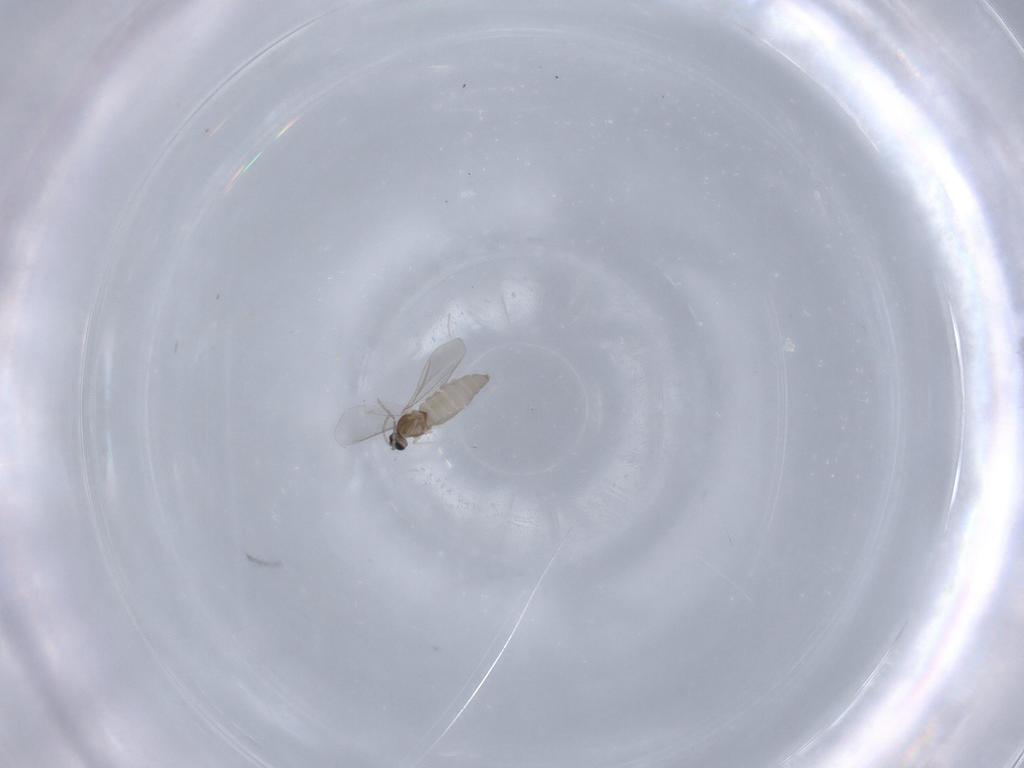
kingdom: Animalia
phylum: Arthropoda
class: Insecta
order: Diptera
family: Cecidomyiidae
